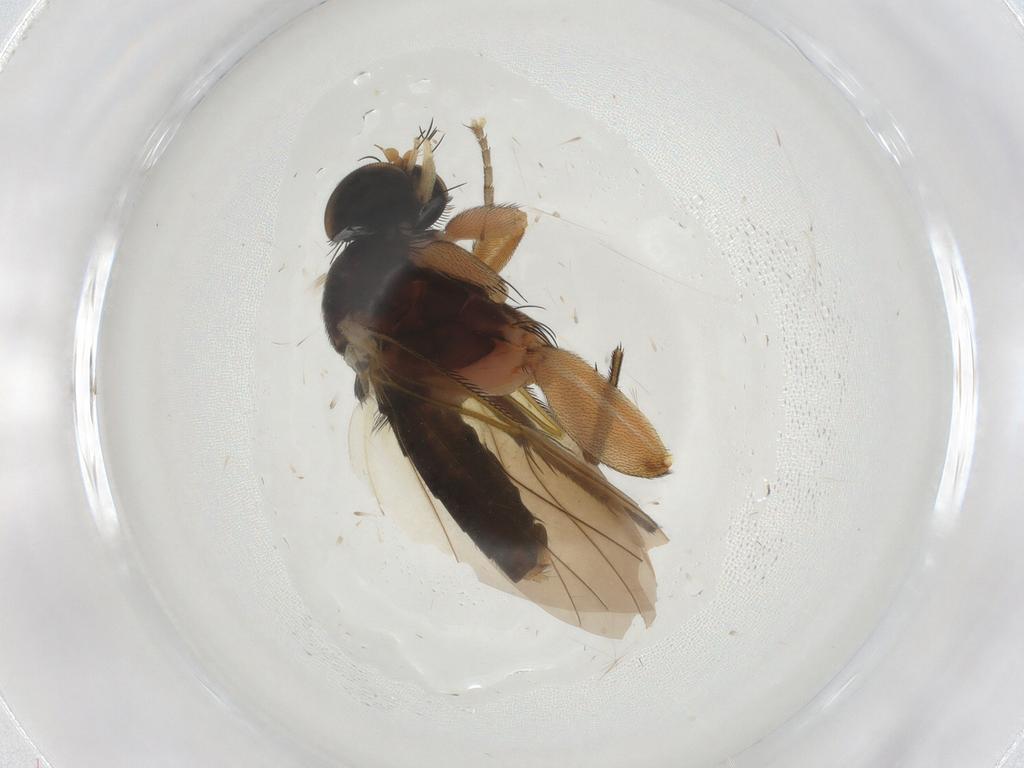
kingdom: Animalia
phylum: Arthropoda
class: Insecta
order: Diptera
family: Phoridae
